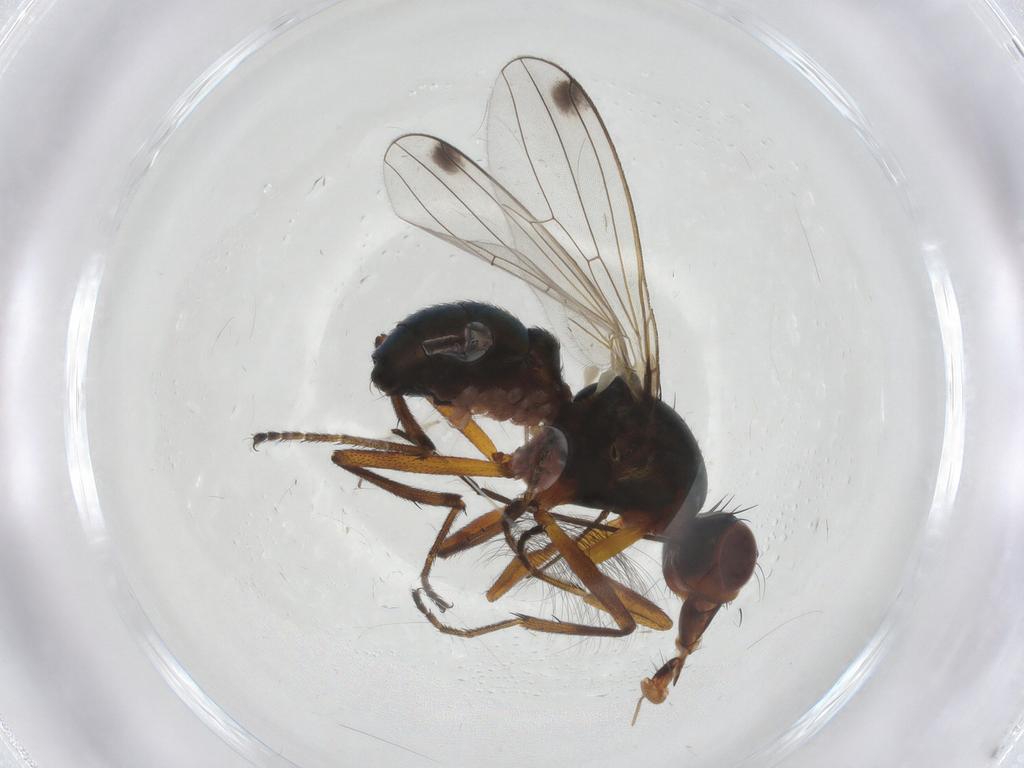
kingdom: Animalia
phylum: Arthropoda
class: Insecta
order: Diptera
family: Sepsidae
